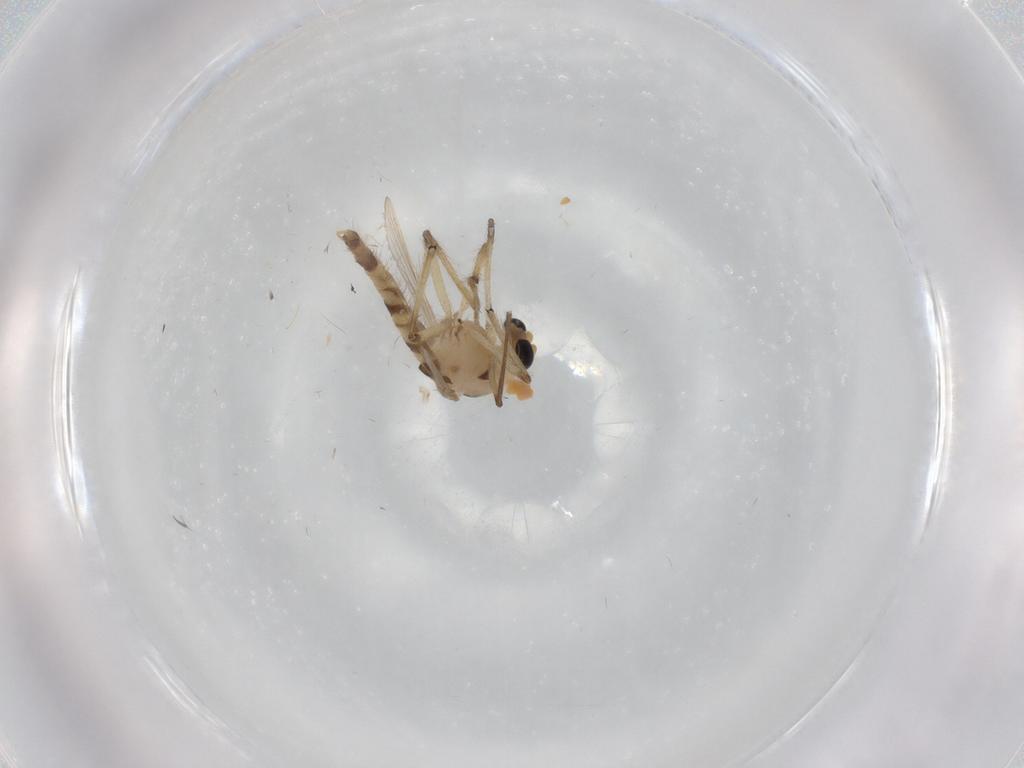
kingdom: Animalia
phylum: Arthropoda
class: Insecta
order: Diptera
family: Chironomidae
